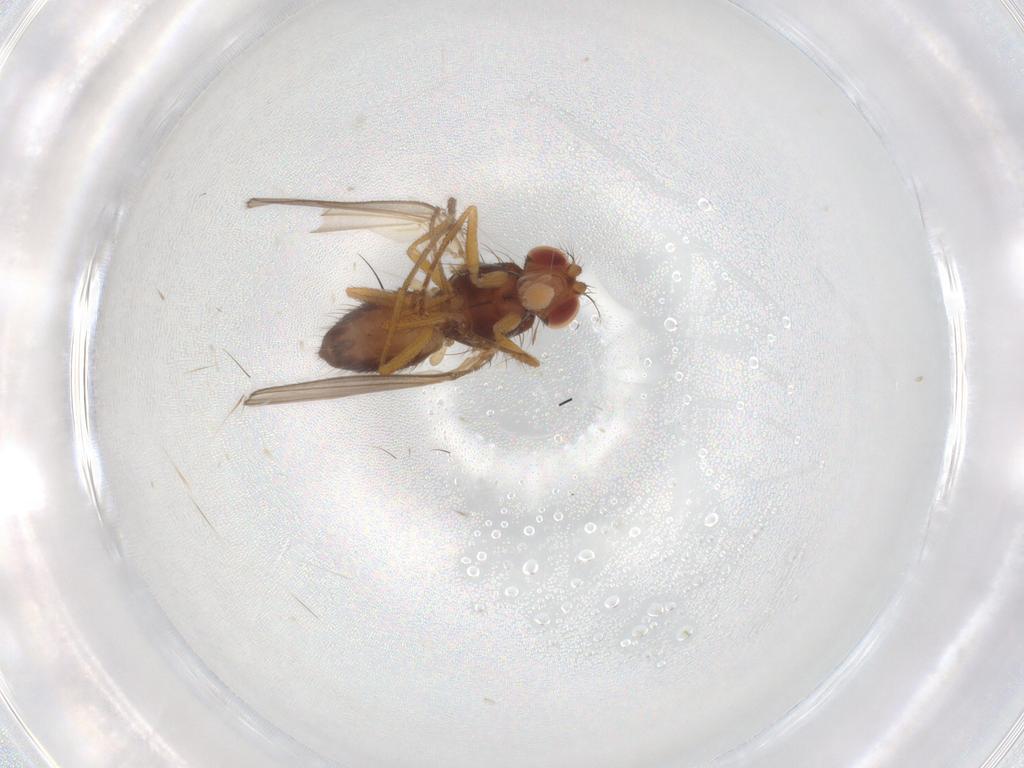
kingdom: Animalia
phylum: Arthropoda
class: Insecta
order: Diptera
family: Drosophilidae
